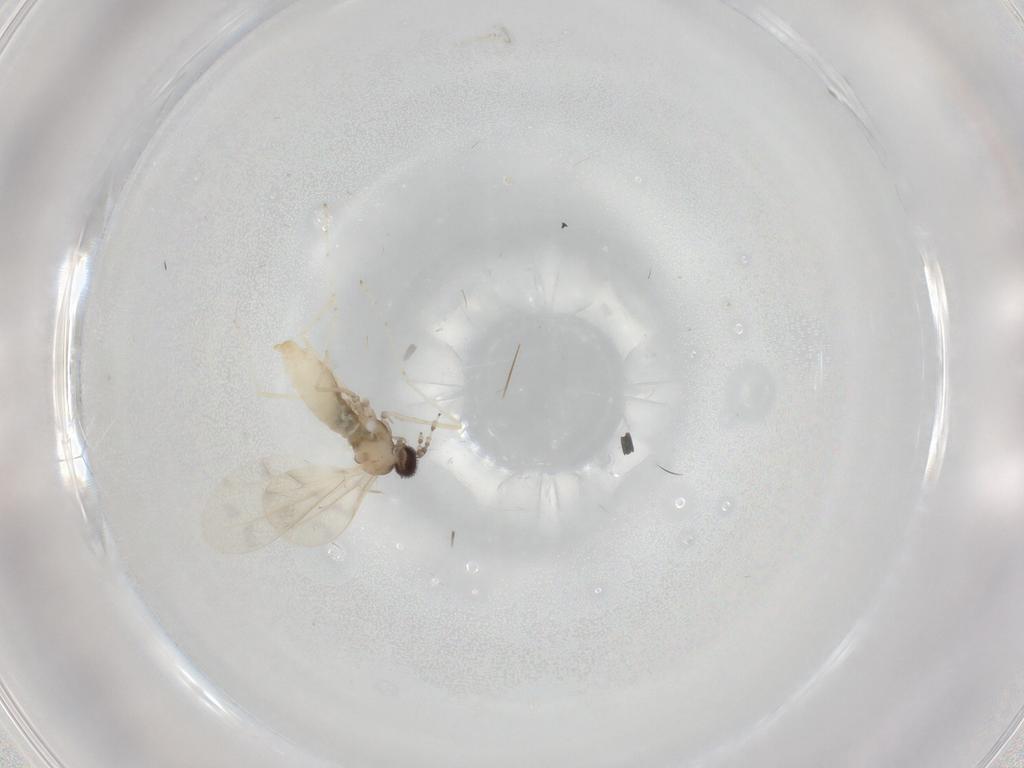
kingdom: Animalia
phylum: Arthropoda
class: Insecta
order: Diptera
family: Cecidomyiidae
